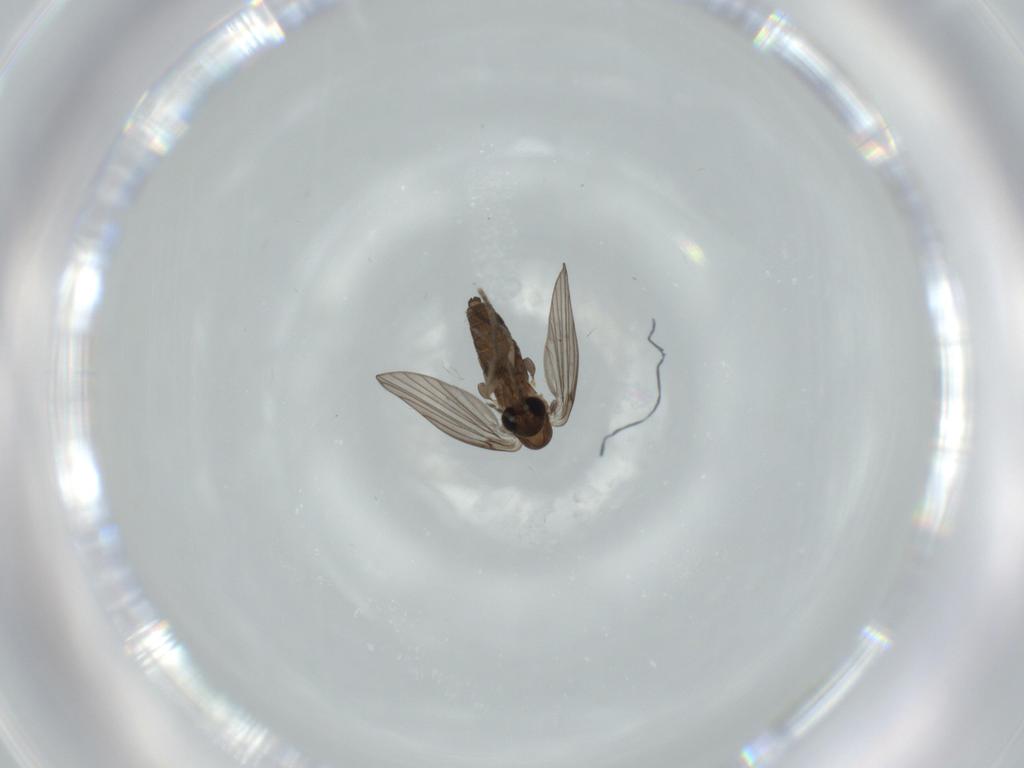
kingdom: Animalia
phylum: Arthropoda
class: Insecta
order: Diptera
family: Psychodidae
